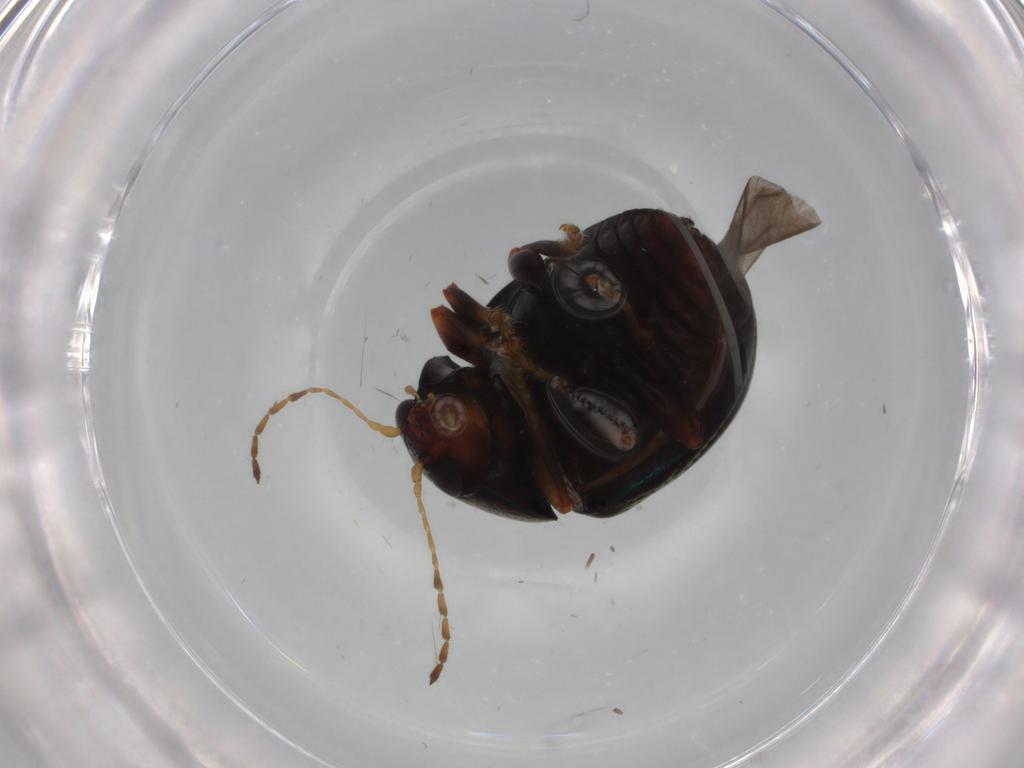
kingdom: Animalia
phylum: Arthropoda
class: Insecta
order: Coleoptera
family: Chrysomelidae
